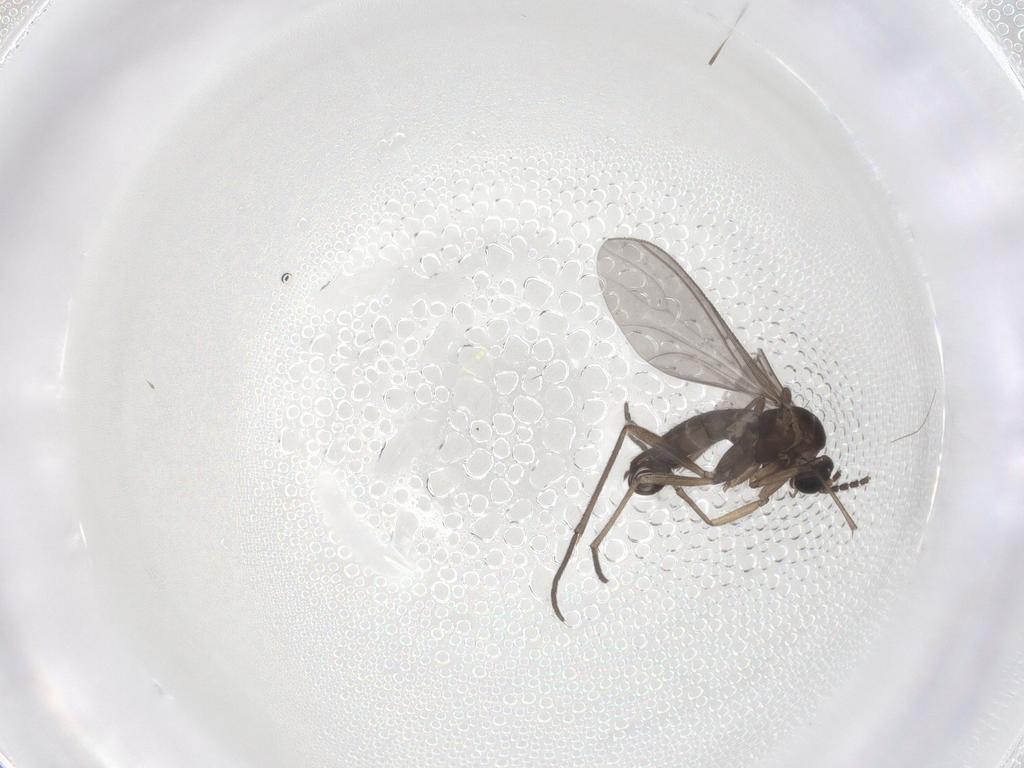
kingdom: Animalia
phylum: Arthropoda
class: Insecta
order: Diptera
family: Sciaridae
